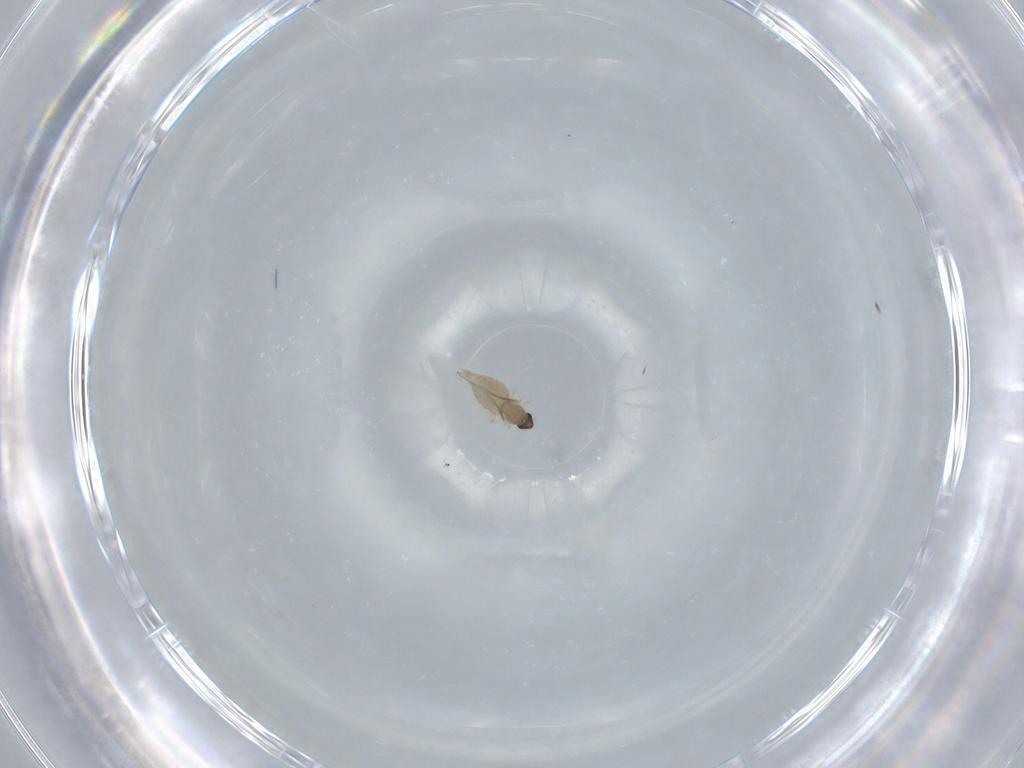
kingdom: Animalia
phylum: Arthropoda
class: Insecta
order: Diptera
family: Cecidomyiidae
